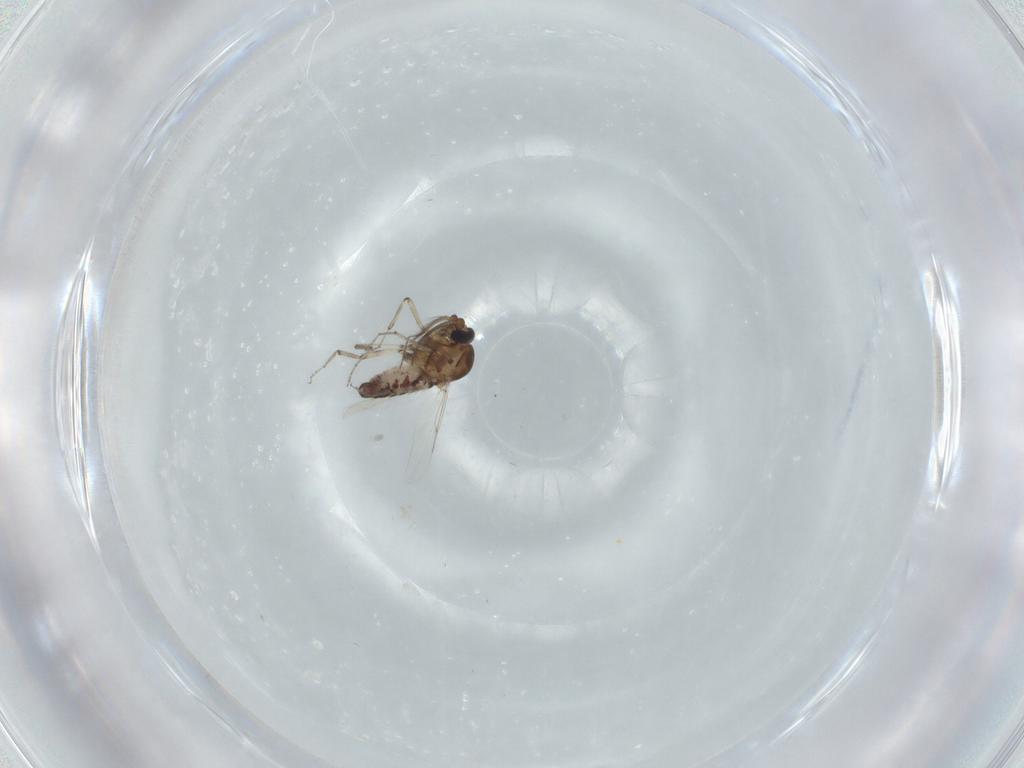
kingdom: Animalia
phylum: Arthropoda
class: Insecta
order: Diptera
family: Ceratopogonidae
